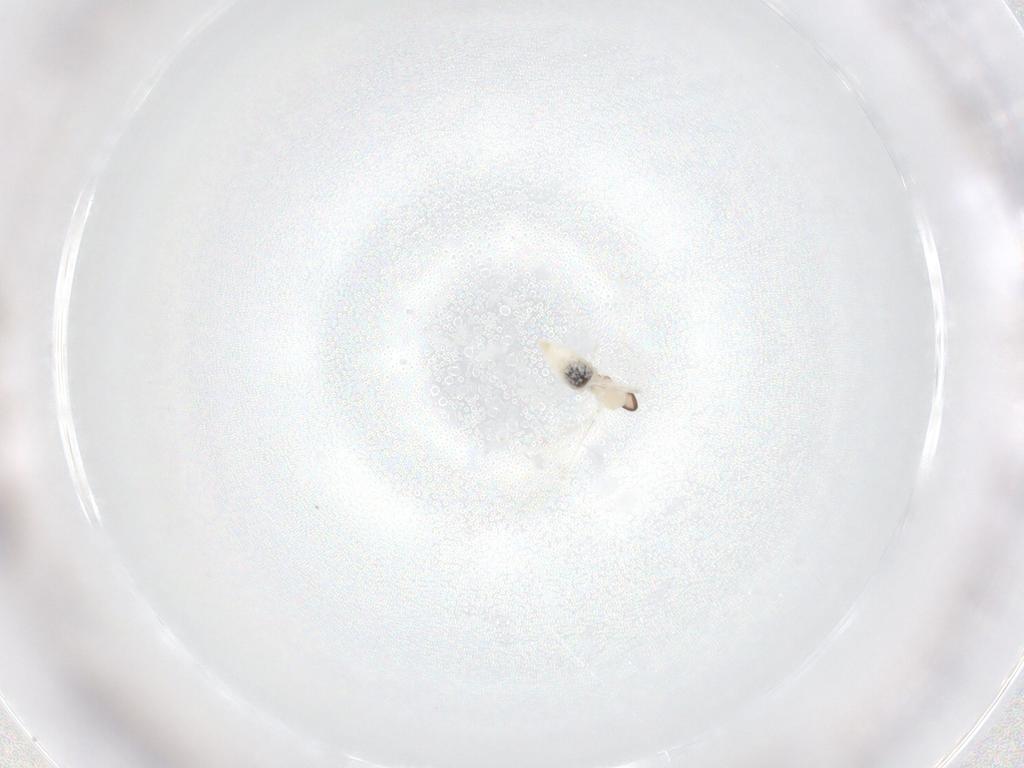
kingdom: Animalia
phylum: Arthropoda
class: Insecta
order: Diptera
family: Cecidomyiidae
